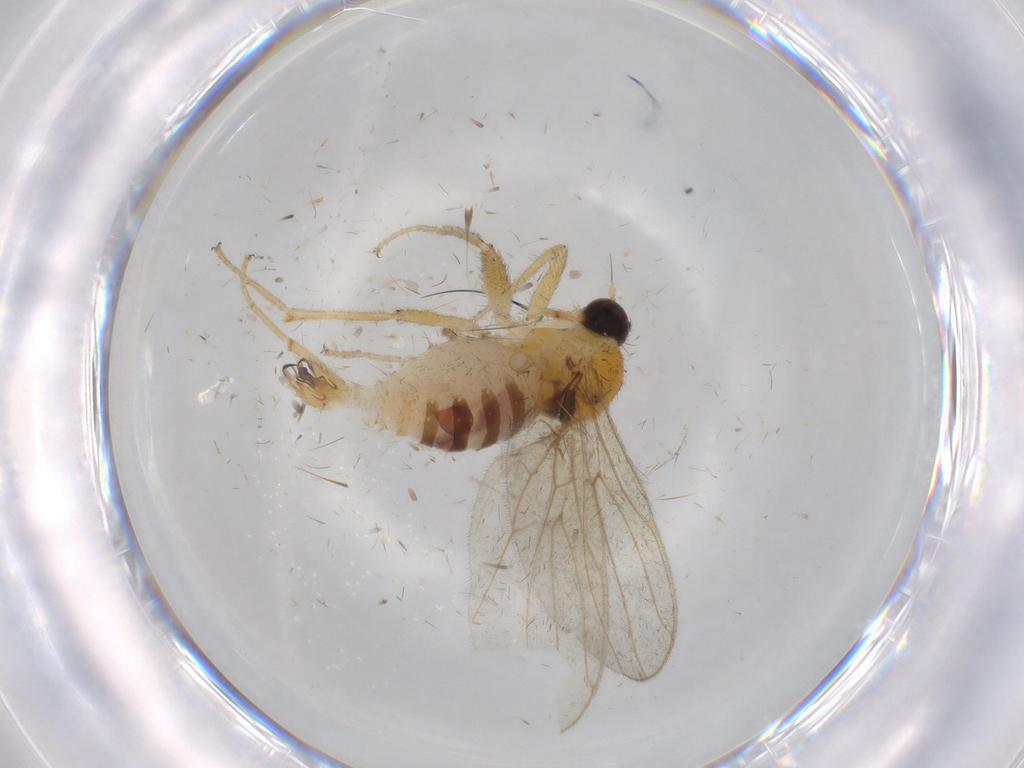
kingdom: Animalia
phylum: Arthropoda
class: Insecta
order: Diptera
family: Hybotidae
